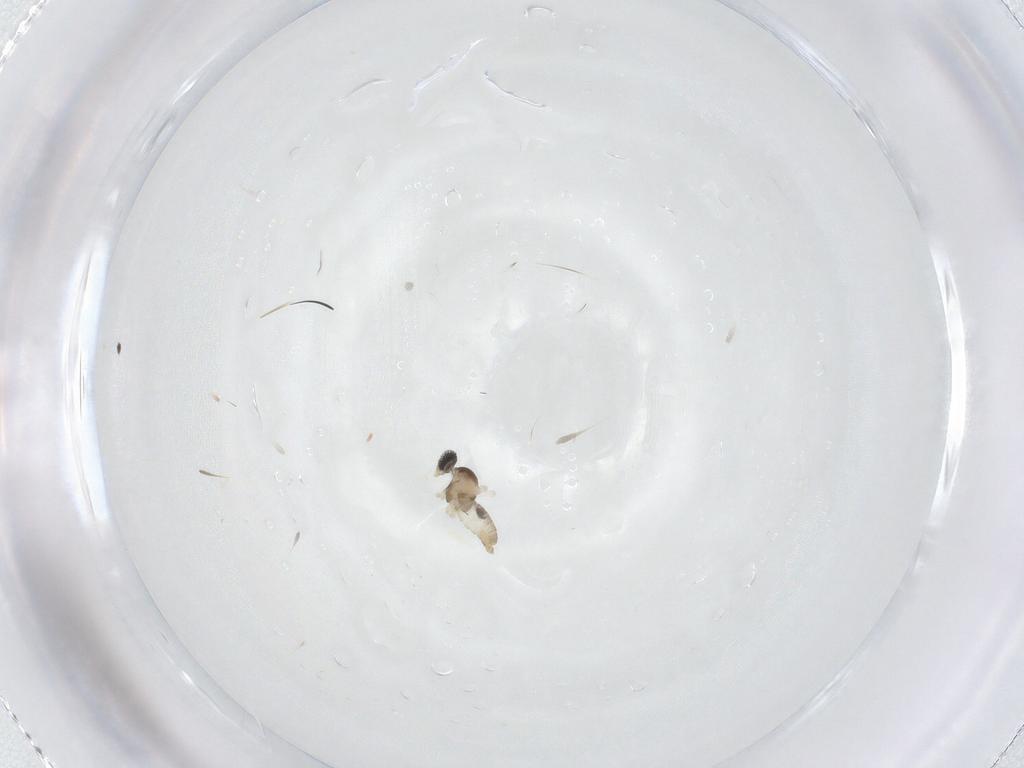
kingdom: Animalia
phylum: Arthropoda
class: Insecta
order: Diptera
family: Cecidomyiidae
